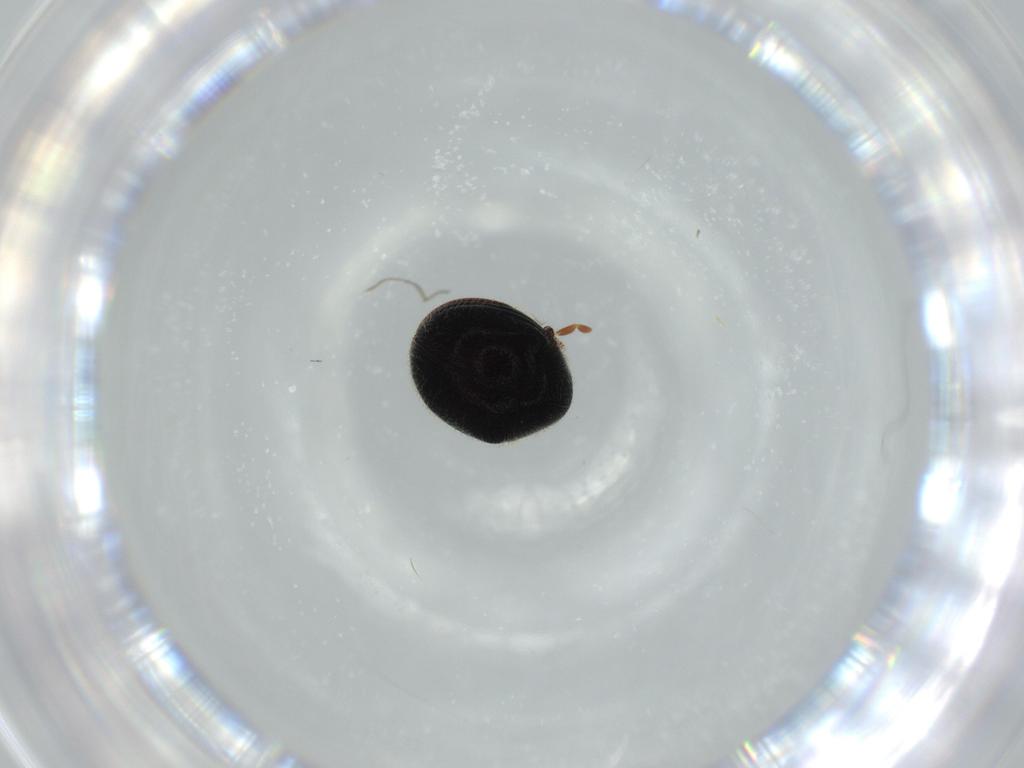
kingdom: Animalia
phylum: Arthropoda
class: Insecta
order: Coleoptera
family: Ptinidae
